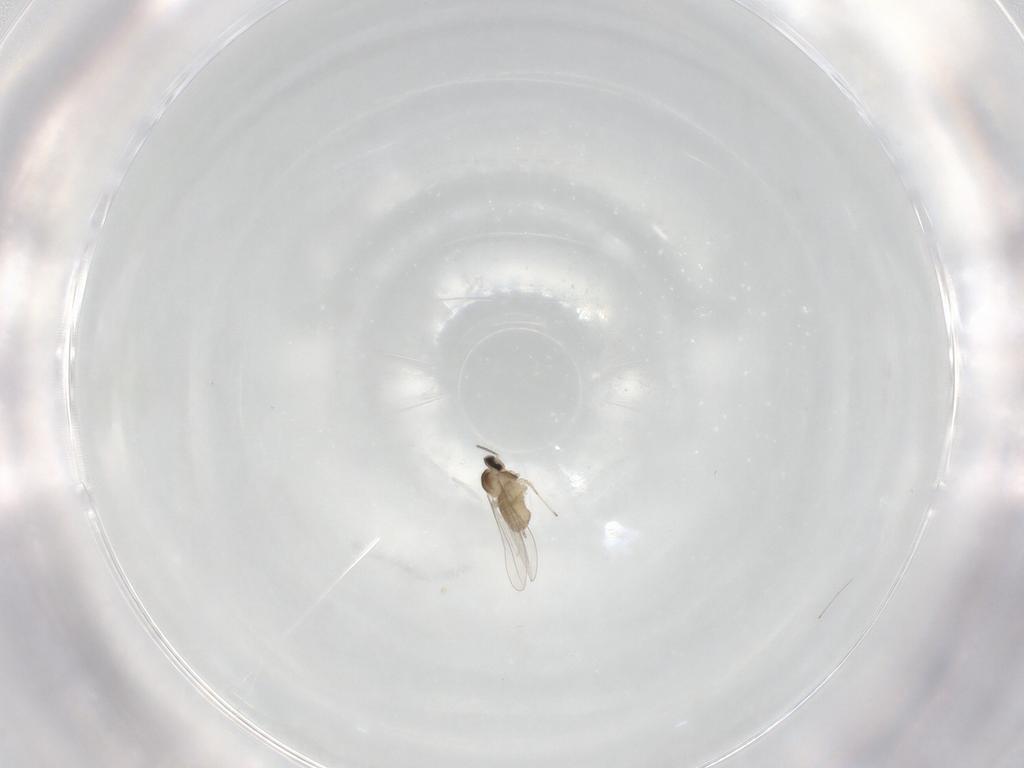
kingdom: Animalia
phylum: Arthropoda
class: Insecta
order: Diptera
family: Cecidomyiidae
